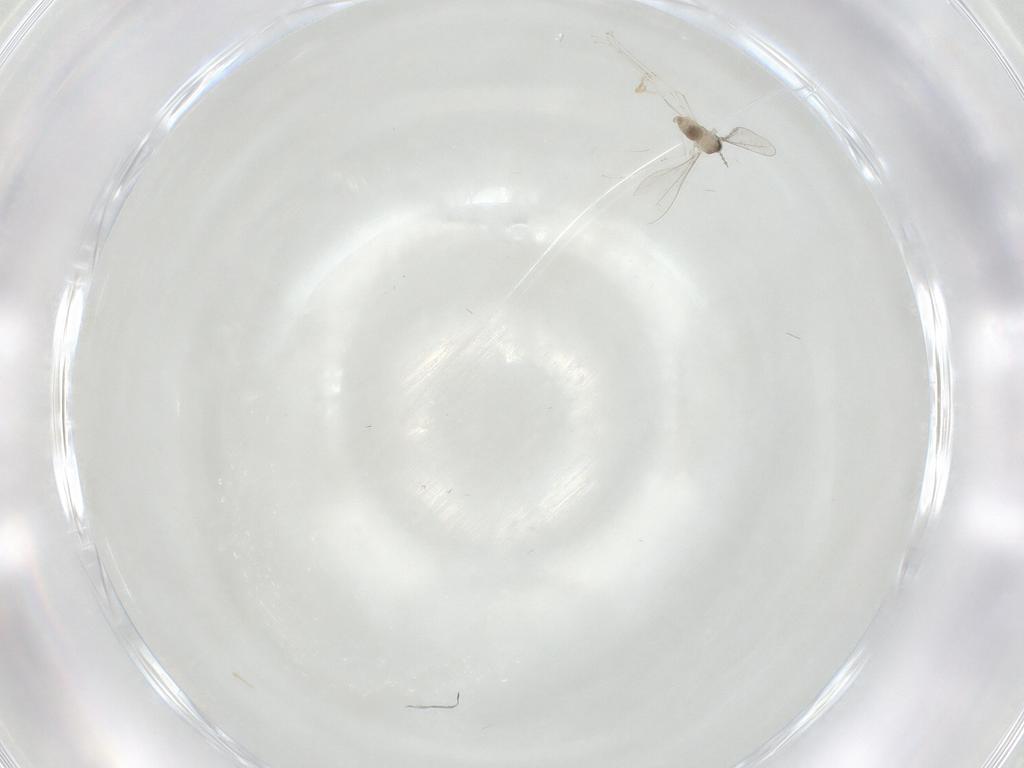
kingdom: Animalia
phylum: Arthropoda
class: Insecta
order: Diptera
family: Cecidomyiidae
